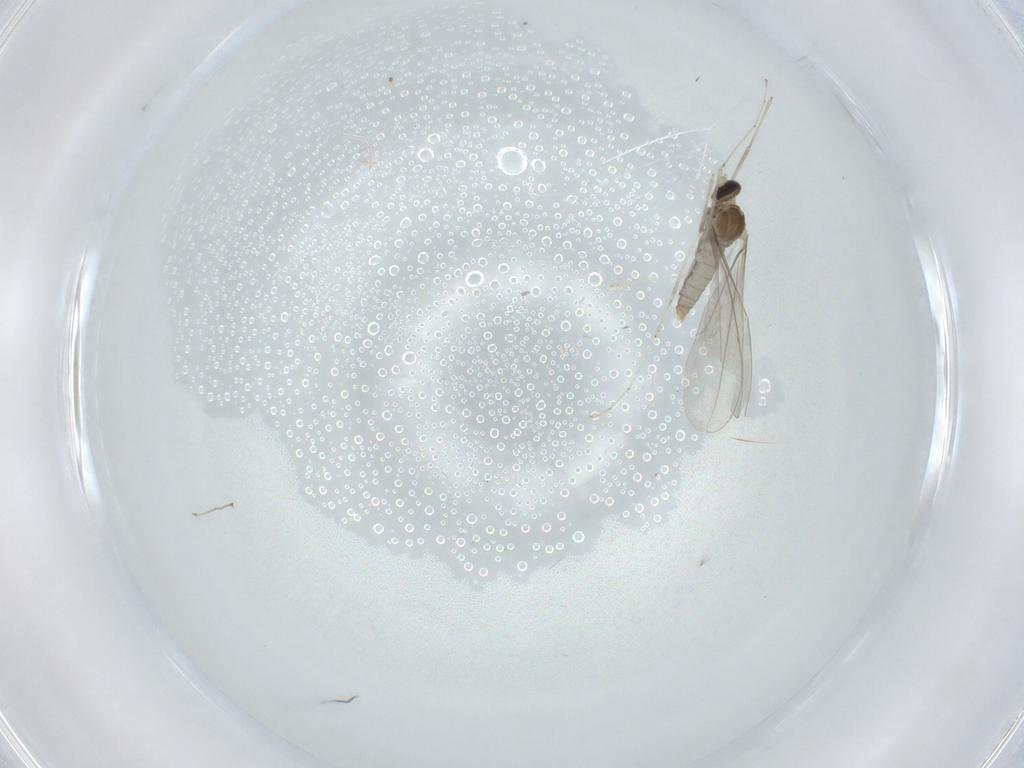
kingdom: Animalia
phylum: Arthropoda
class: Insecta
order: Diptera
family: Cecidomyiidae
